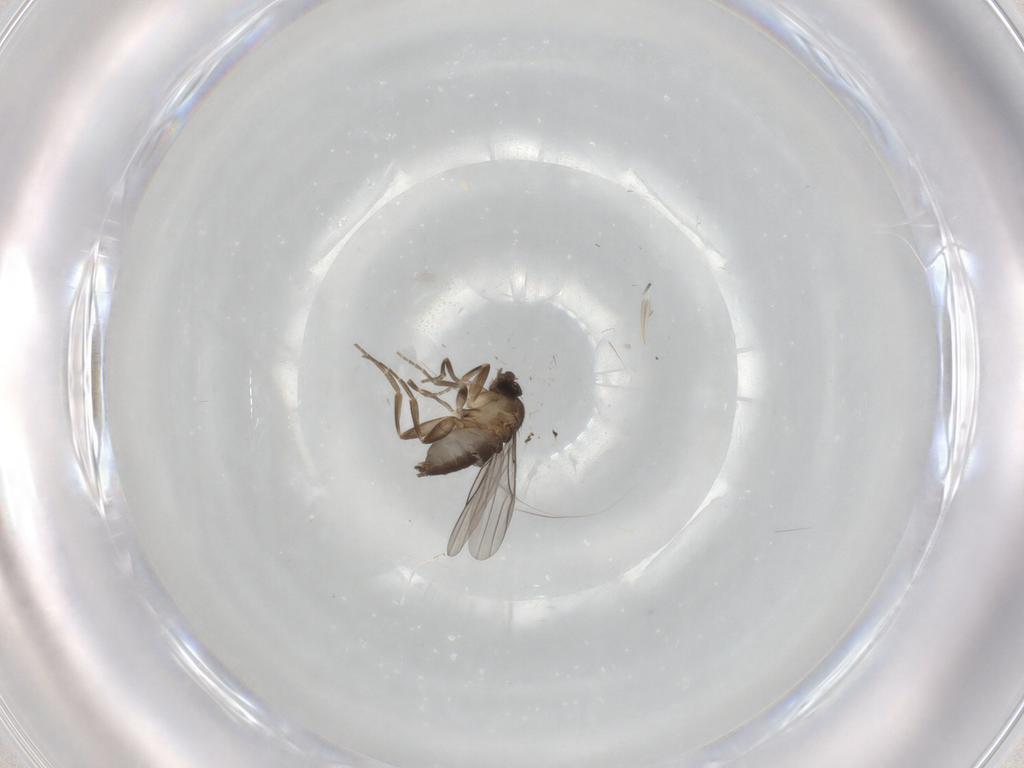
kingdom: Animalia
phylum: Arthropoda
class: Insecta
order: Diptera
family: Phoridae
